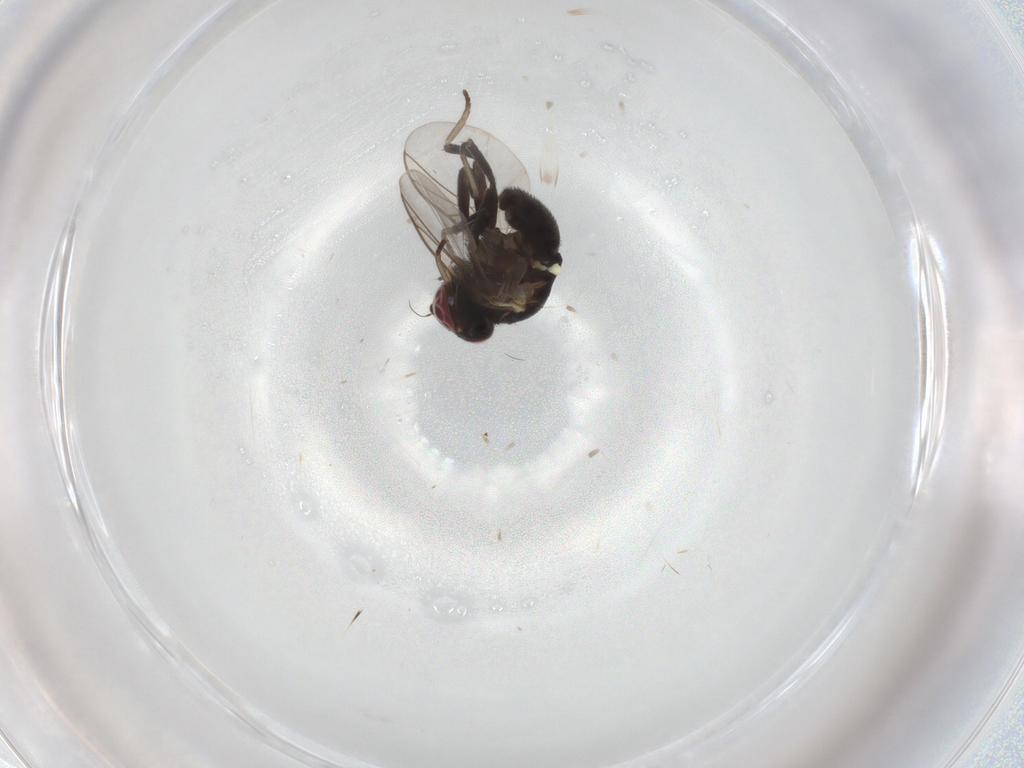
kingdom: Animalia
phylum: Arthropoda
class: Insecta
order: Diptera
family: Agromyzidae
